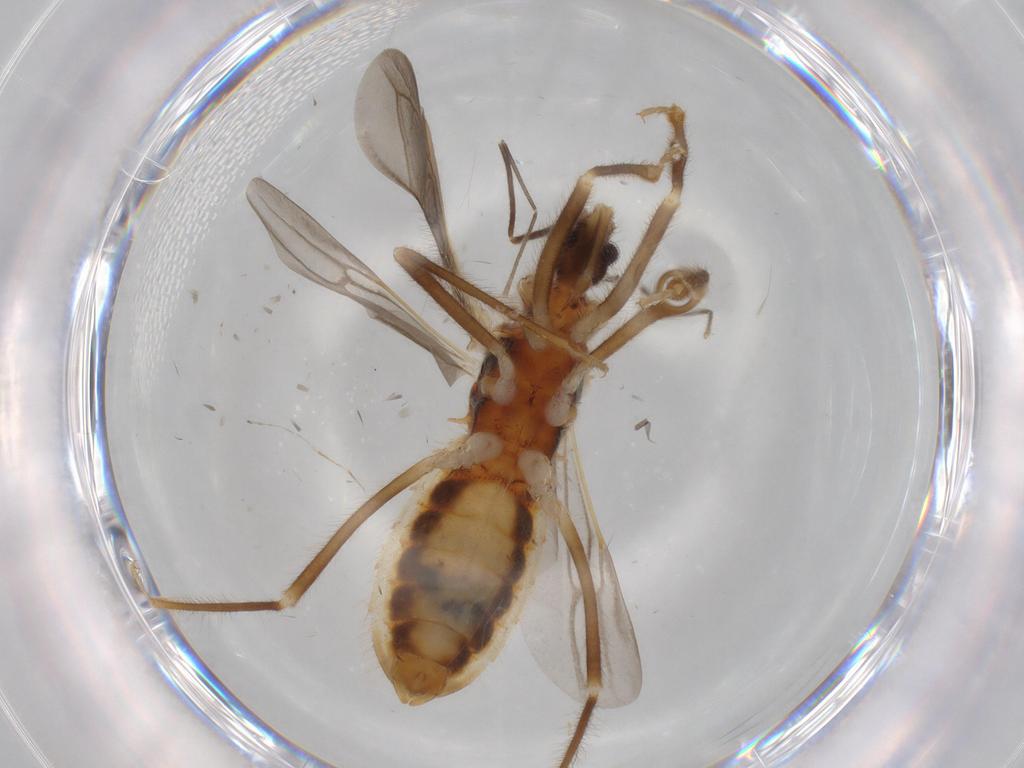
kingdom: Animalia
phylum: Arthropoda
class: Insecta
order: Hemiptera
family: Reduviidae
